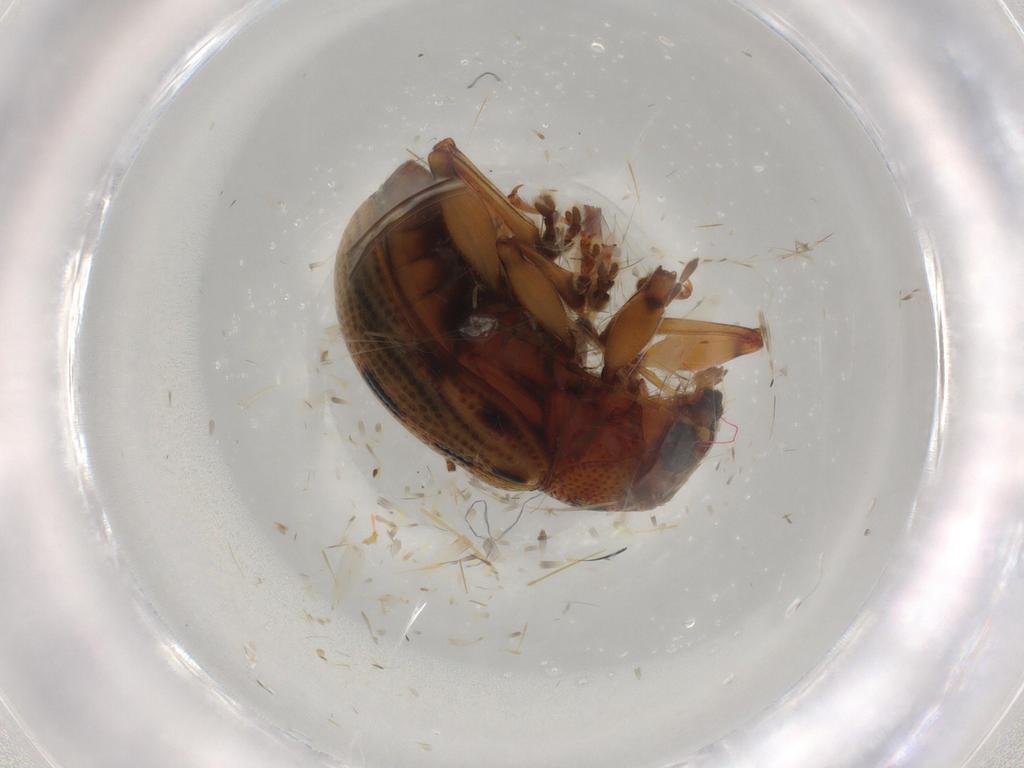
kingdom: Animalia
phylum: Arthropoda
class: Insecta
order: Coleoptera
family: Chrysomelidae
